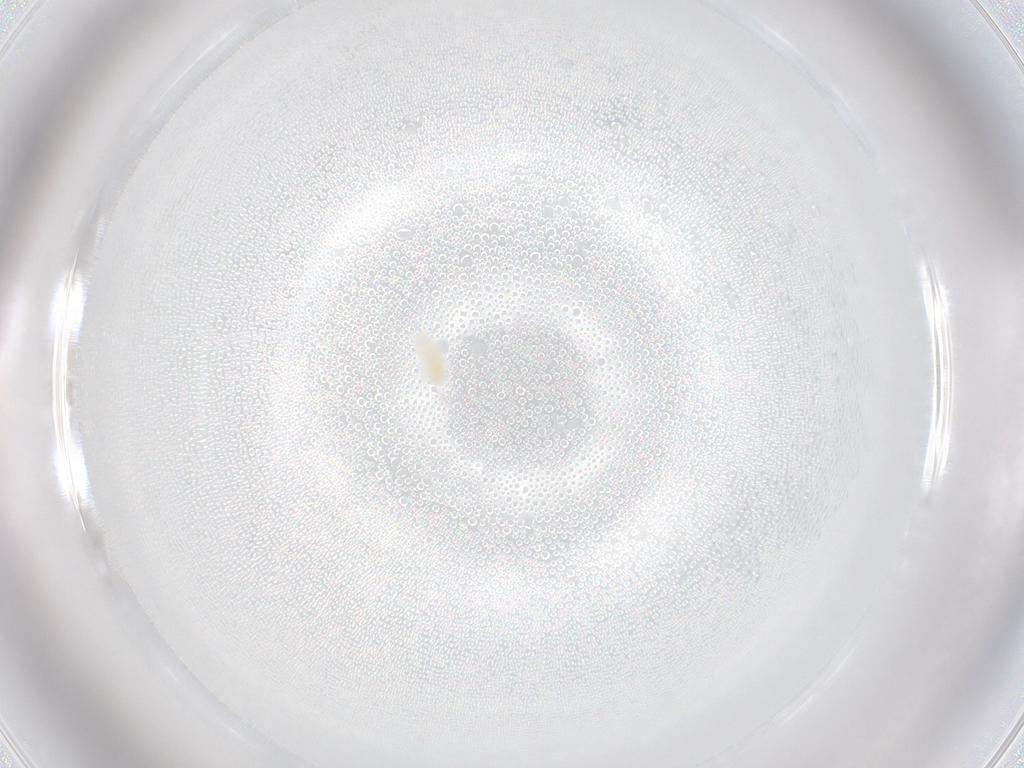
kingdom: Animalia
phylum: Arthropoda
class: Arachnida
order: Trombidiformes
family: Eupodidae
